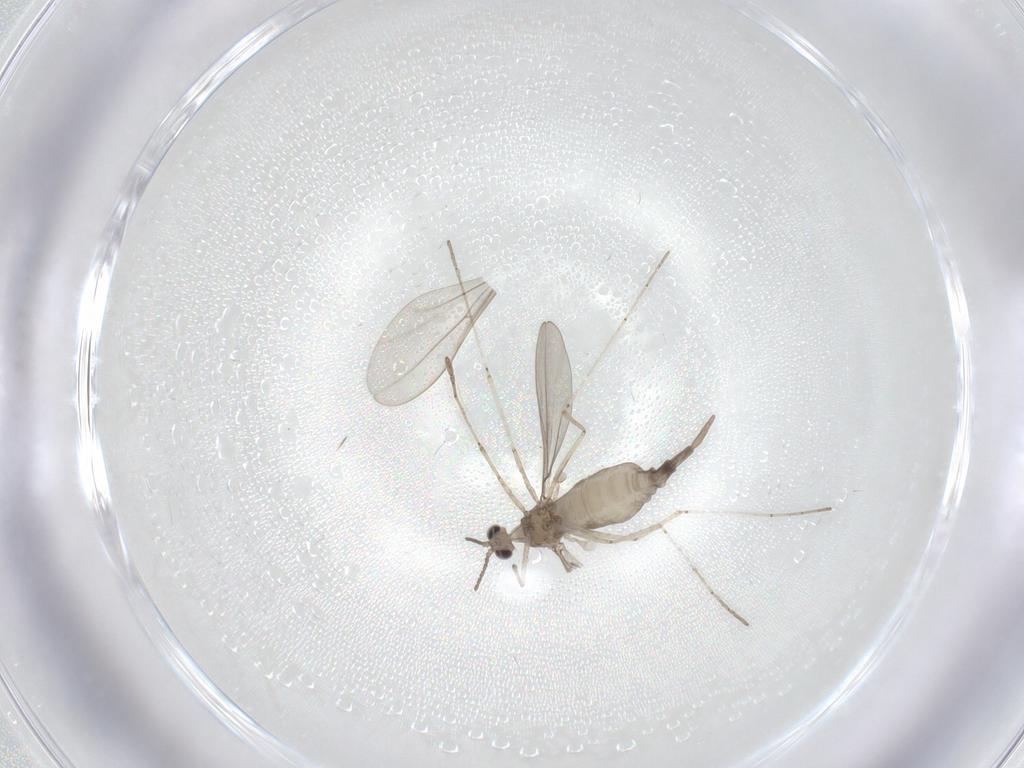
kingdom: Animalia
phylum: Arthropoda
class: Insecta
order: Diptera
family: Cecidomyiidae
